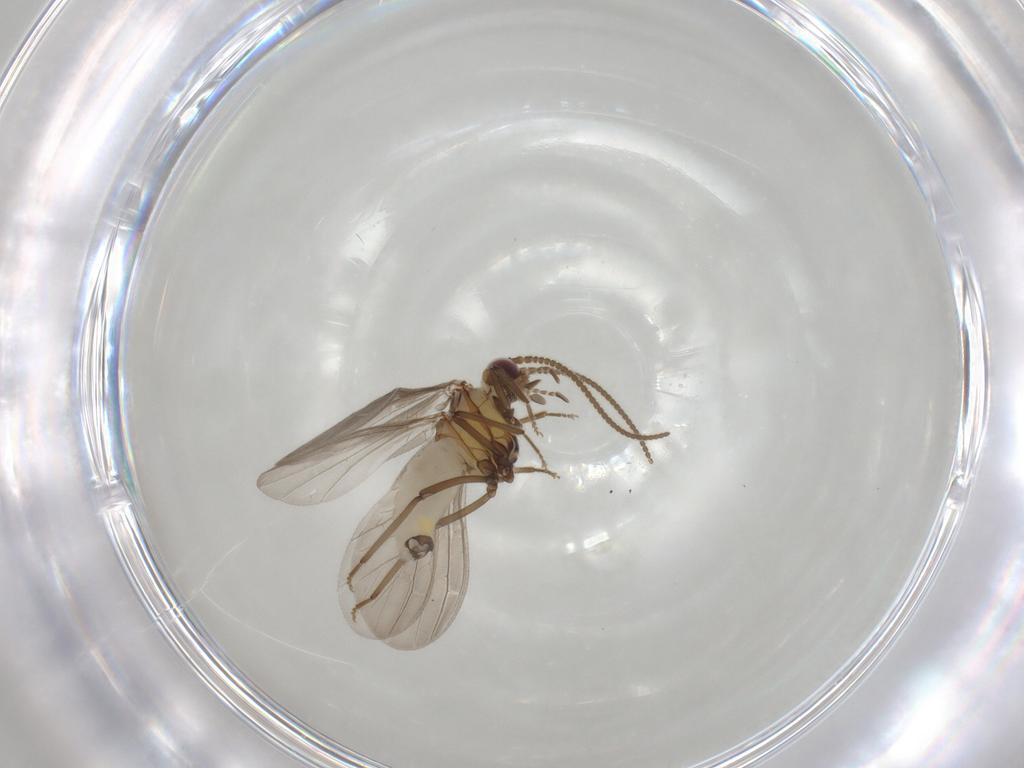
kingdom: Animalia
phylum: Arthropoda
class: Insecta
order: Neuroptera
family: Coniopterygidae
